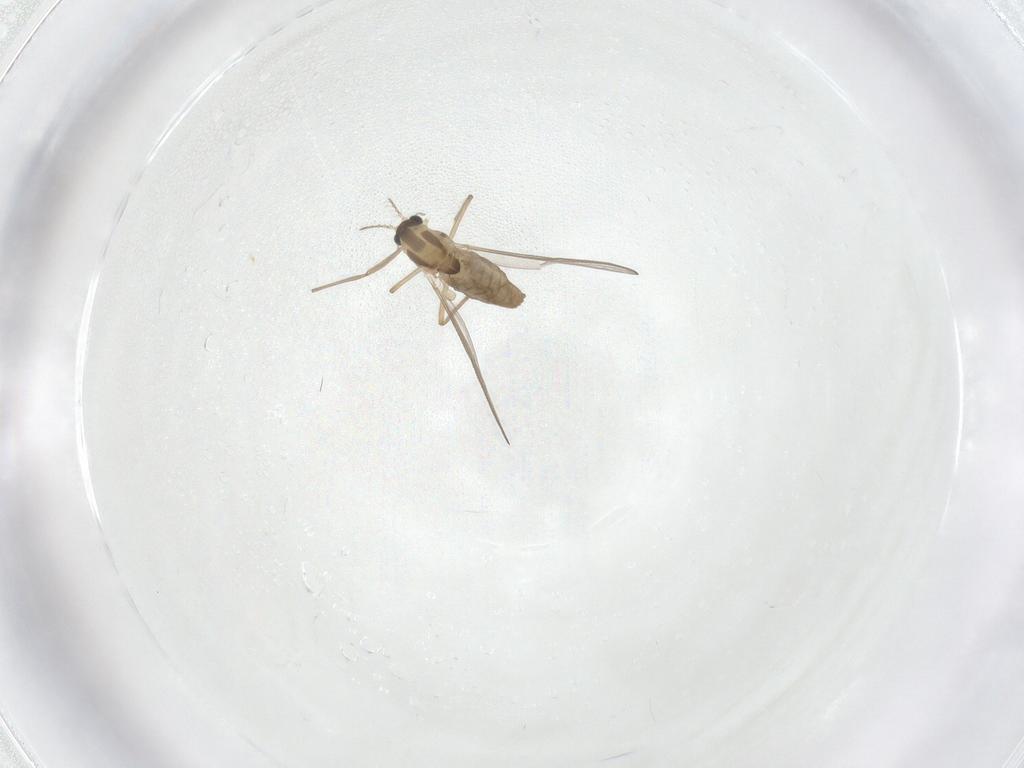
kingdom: Animalia
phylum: Arthropoda
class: Insecta
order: Diptera
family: Chironomidae
